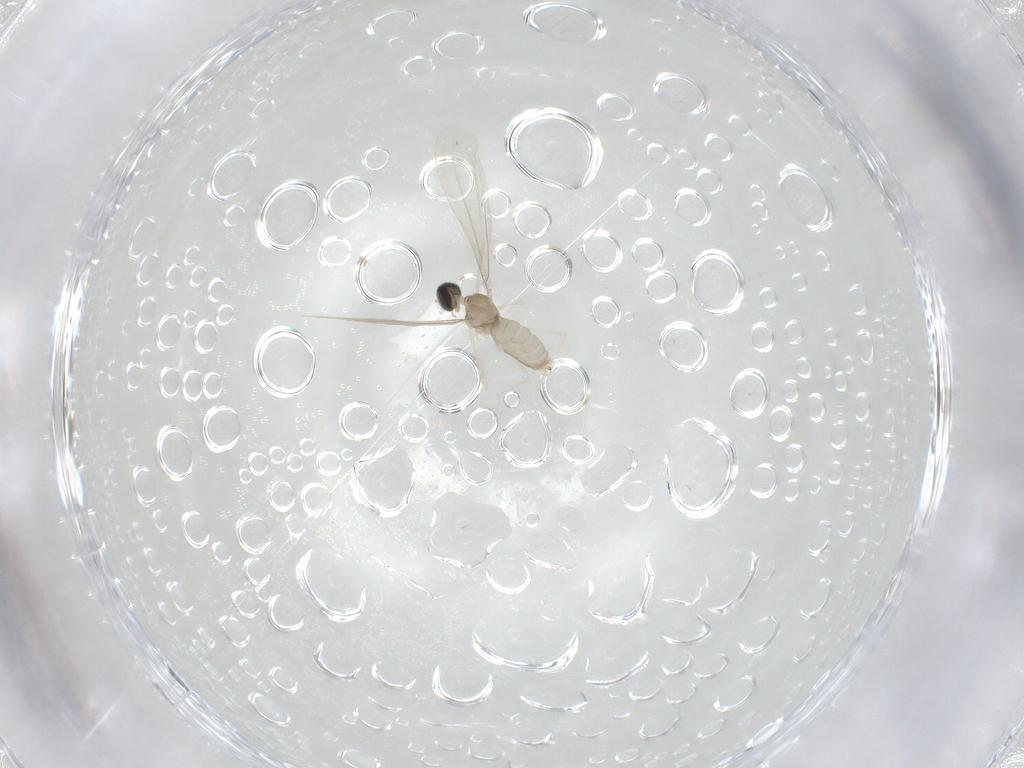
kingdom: Animalia
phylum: Arthropoda
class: Insecta
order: Diptera
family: Cecidomyiidae
